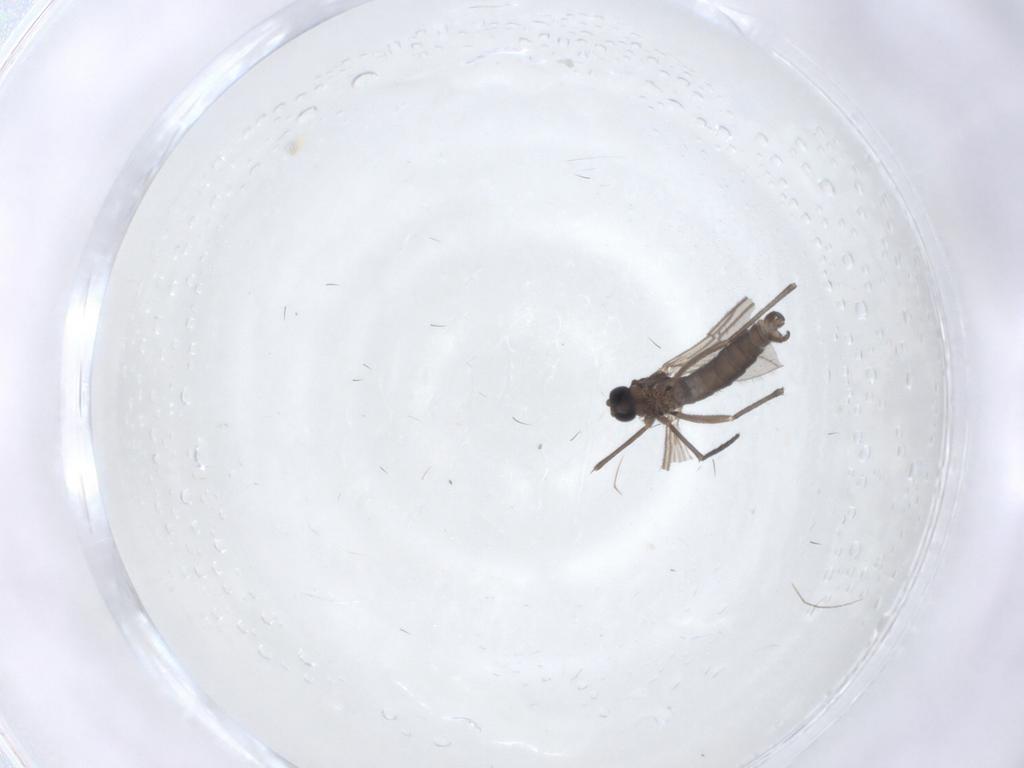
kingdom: Animalia
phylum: Arthropoda
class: Insecta
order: Diptera
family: Sciaridae
